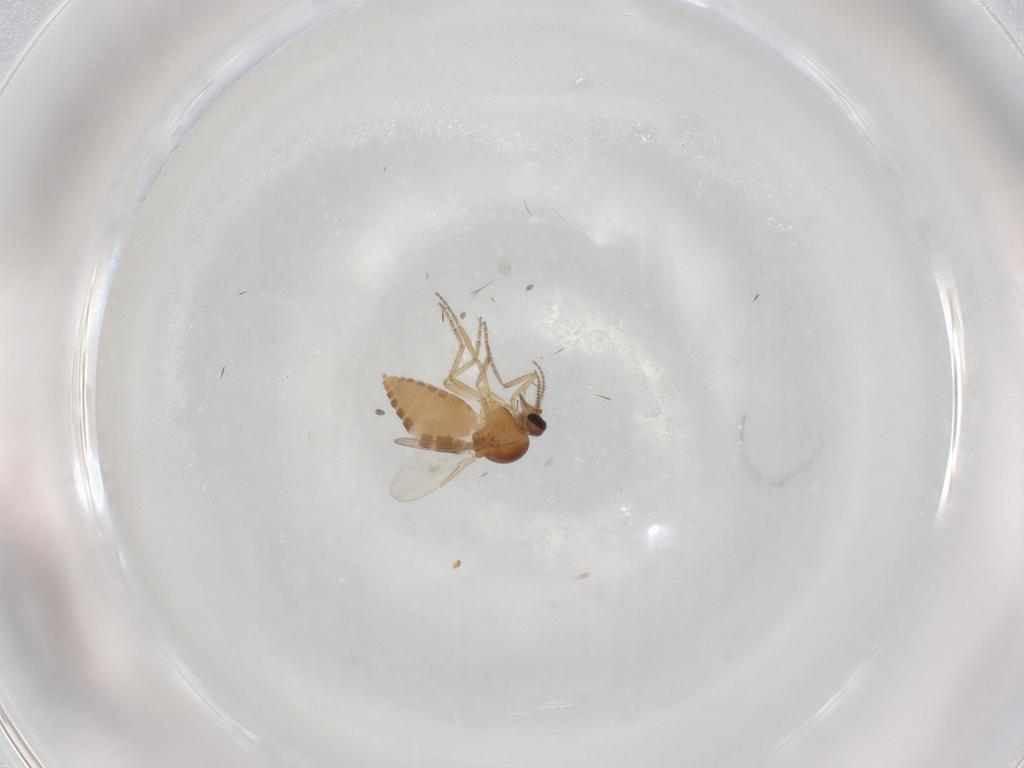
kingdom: Animalia
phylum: Arthropoda
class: Insecta
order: Diptera
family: Ceratopogonidae
